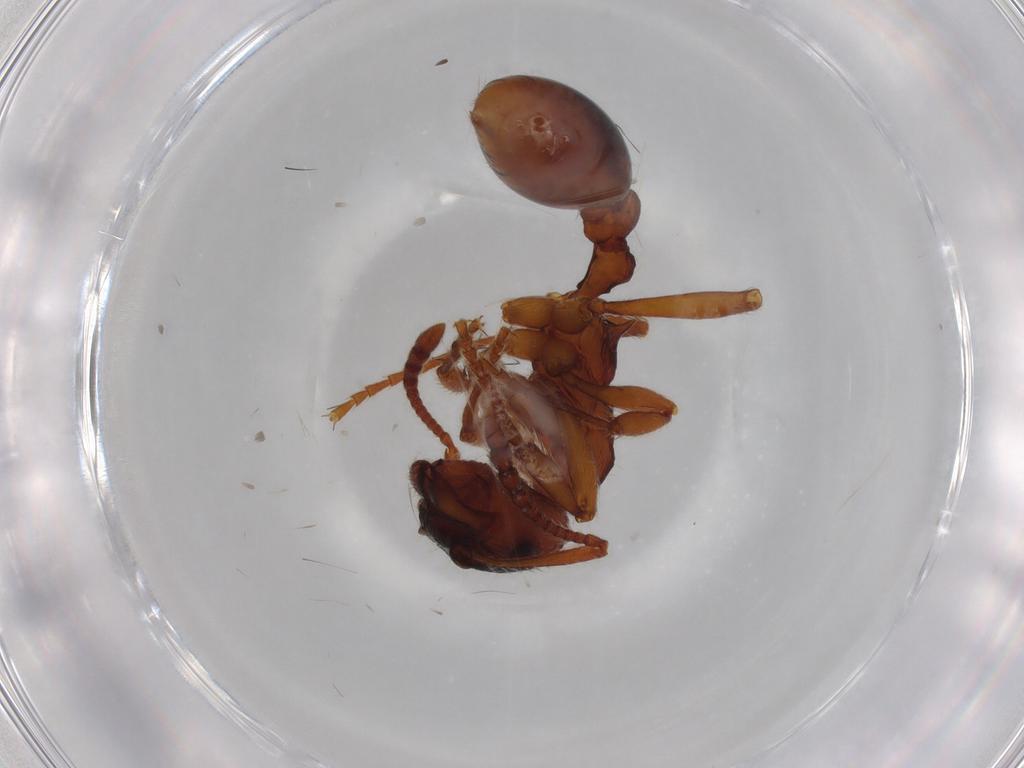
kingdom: Animalia
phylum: Arthropoda
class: Insecta
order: Hymenoptera
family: Formicidae
